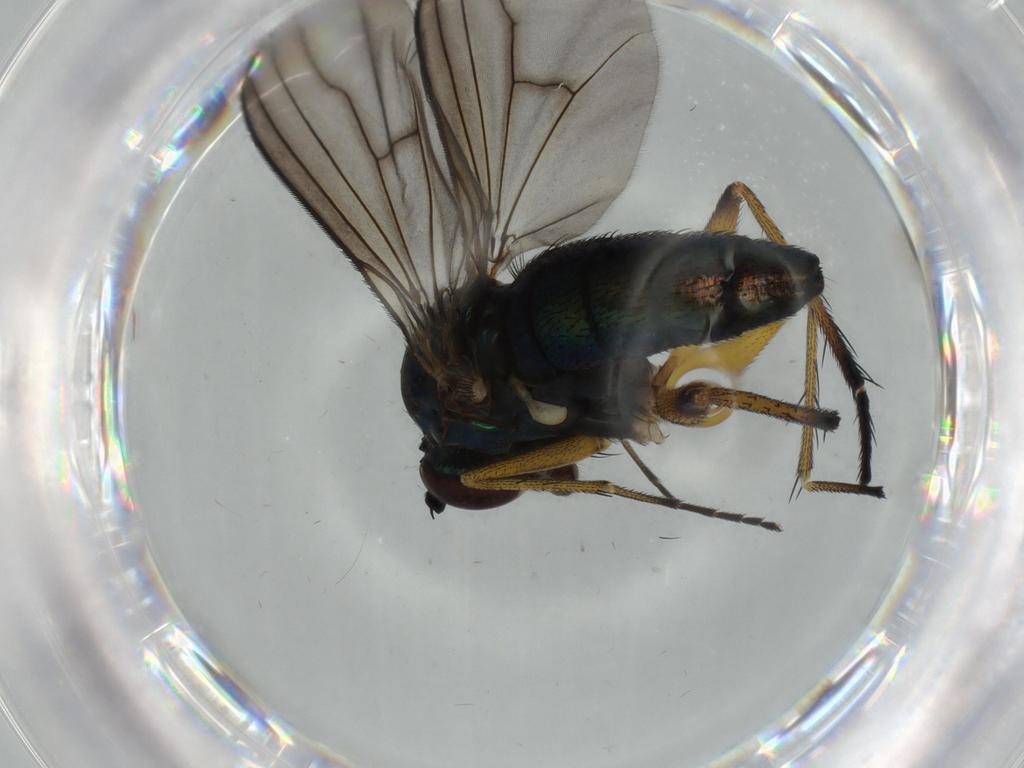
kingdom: Animalia
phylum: Arthropoda
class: Insecta
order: Diptera
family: Dolichopodidae
